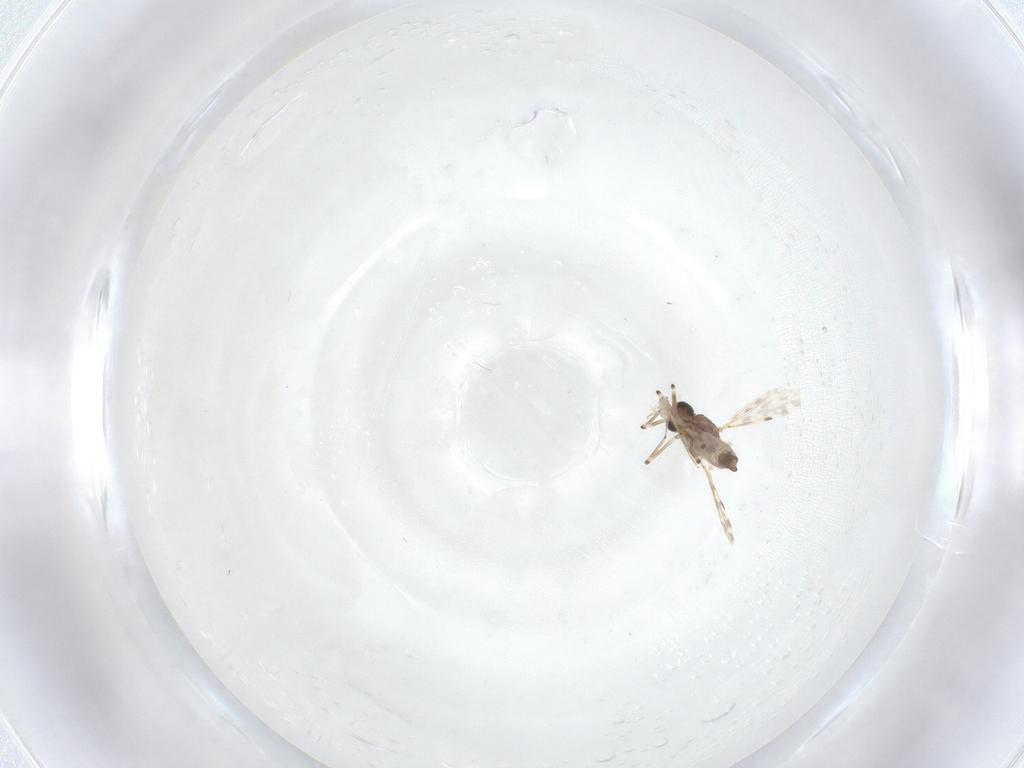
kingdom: Animalia
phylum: Arthropoda
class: Insecta
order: Diptera
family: Ceratopogonidae
